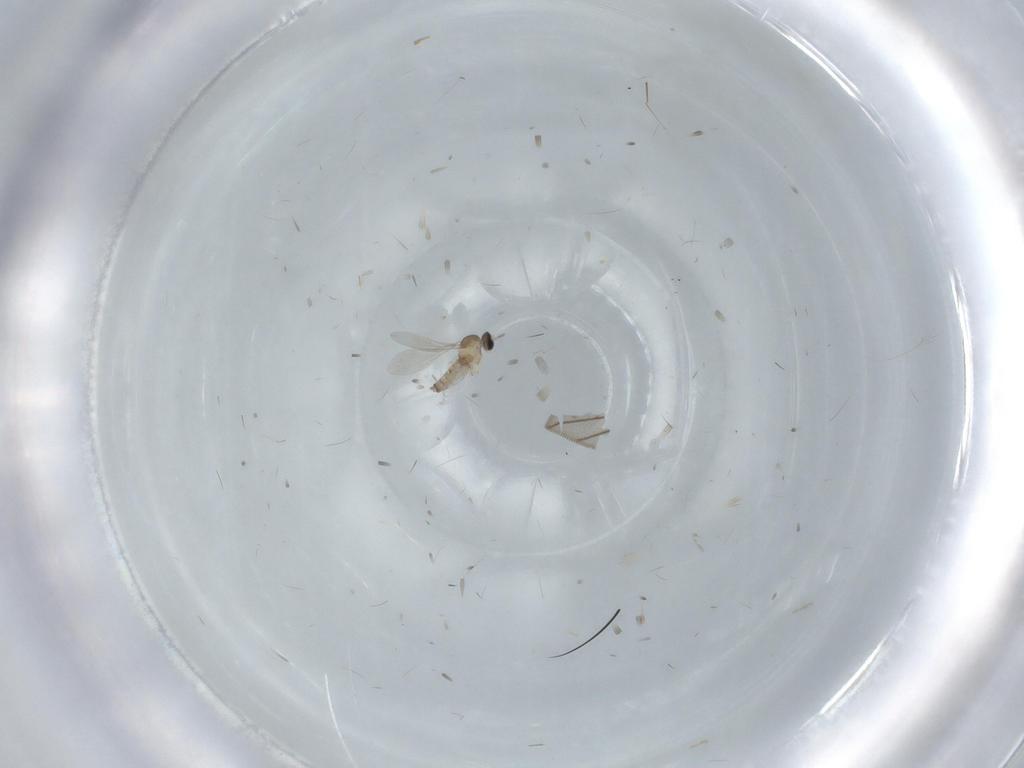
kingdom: Animalia
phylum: Arthropoda
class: Insecta
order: Diptera
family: Cecidomyiidae
